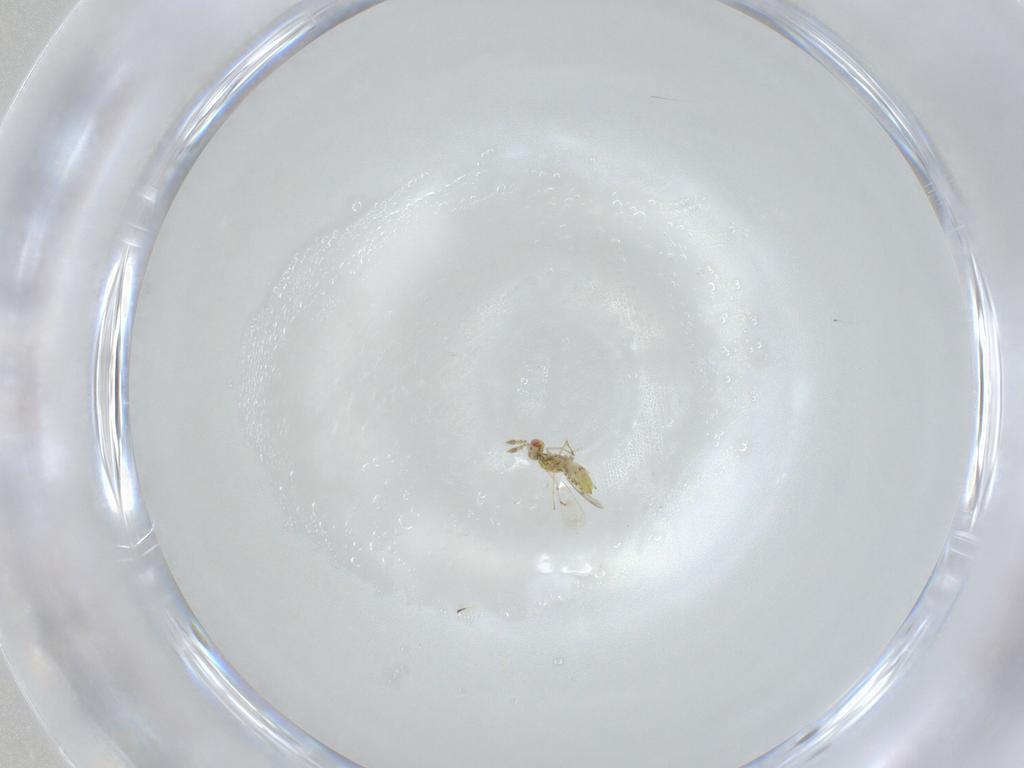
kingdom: Animalia
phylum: Arthropoda
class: Insecta
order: Hymenoptera
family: Eulophidae
